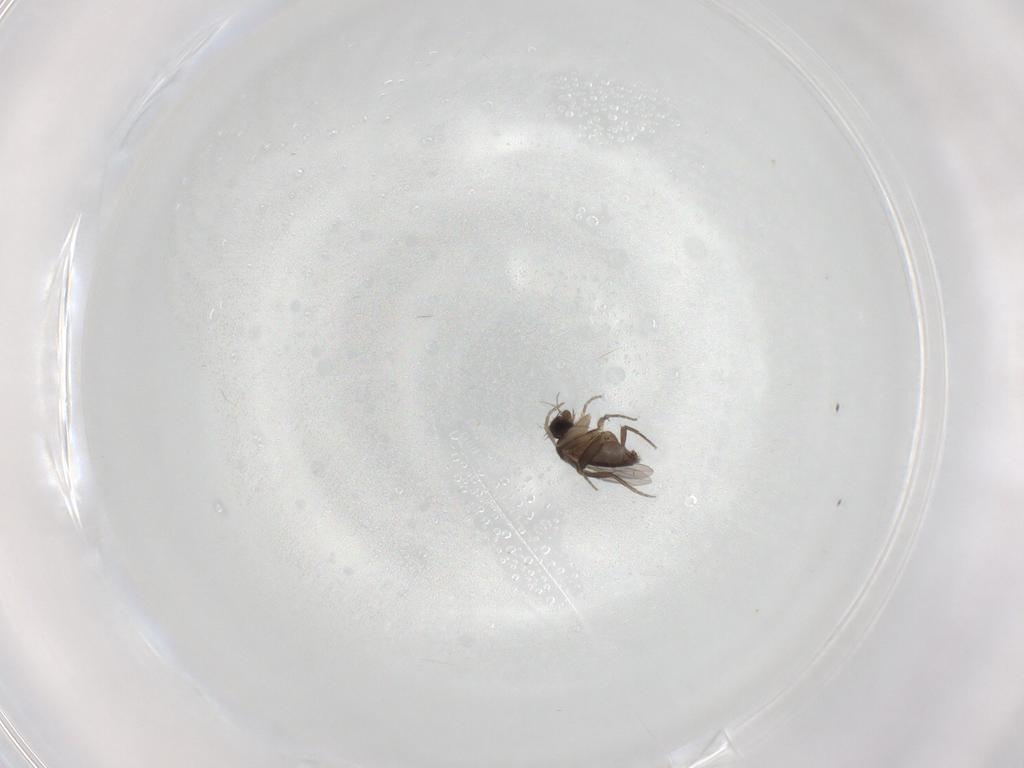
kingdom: Animalia
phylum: Arthropoda
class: Insecta
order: Diptera
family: Phoridae
